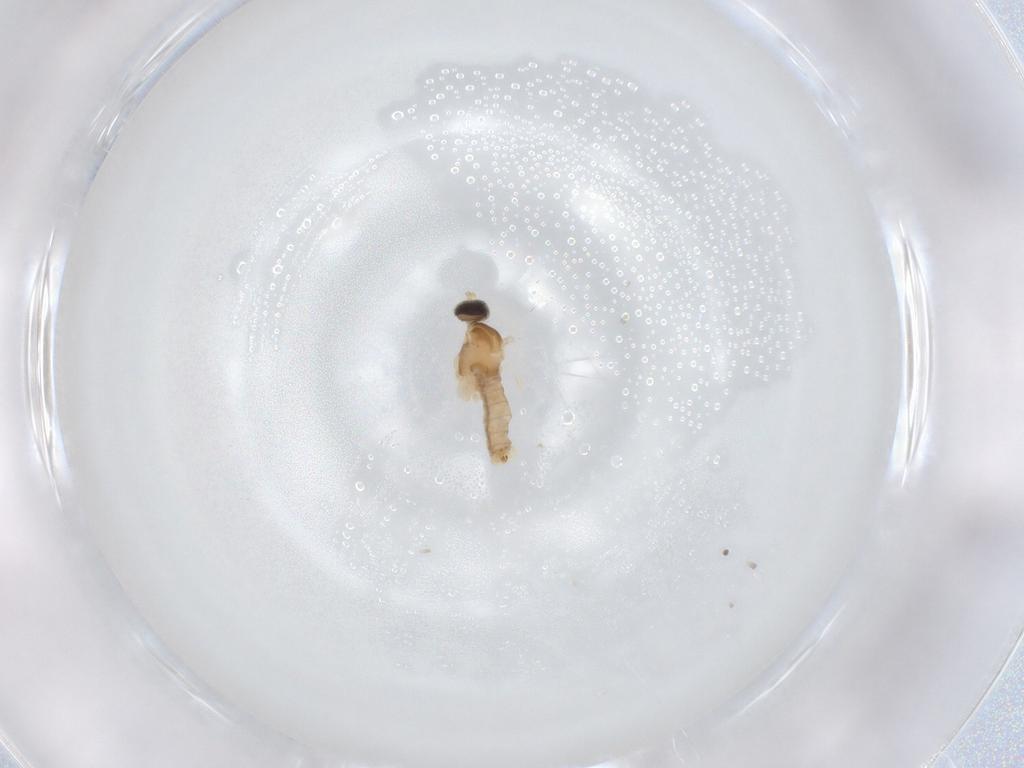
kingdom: Animalia
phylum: Arthropoda
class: Insecta
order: Diptera
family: Cecidomyiidae
